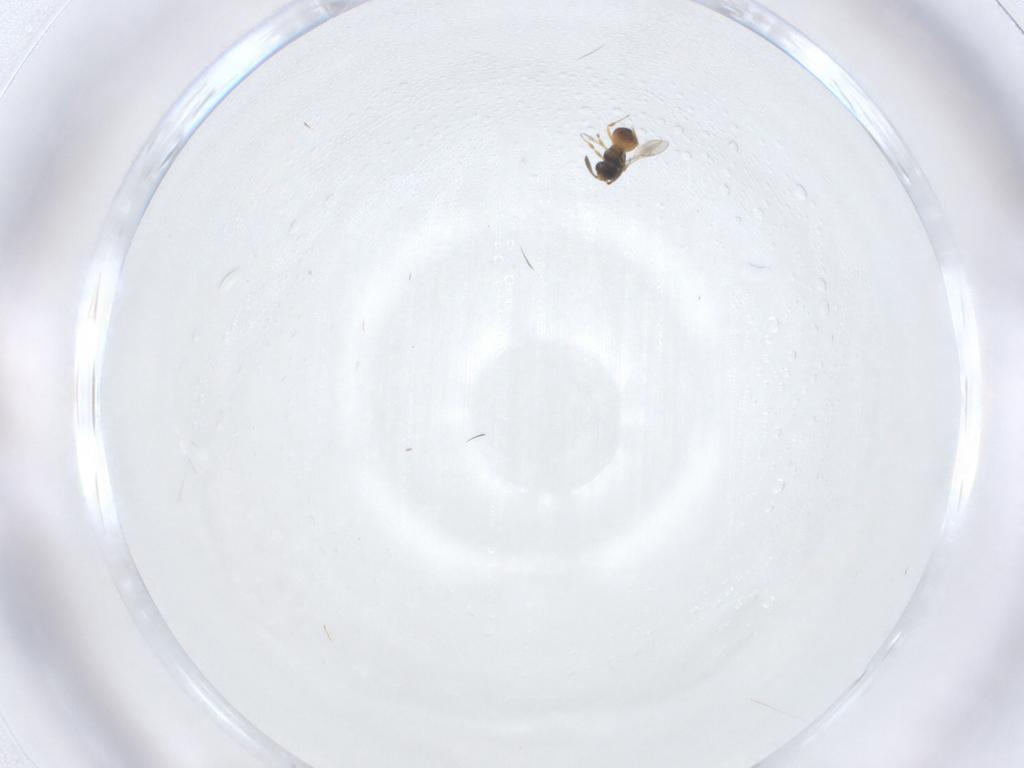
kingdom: Animalia
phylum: Arthropoda
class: Insecta
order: Hymenoptera
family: Scelionidae
